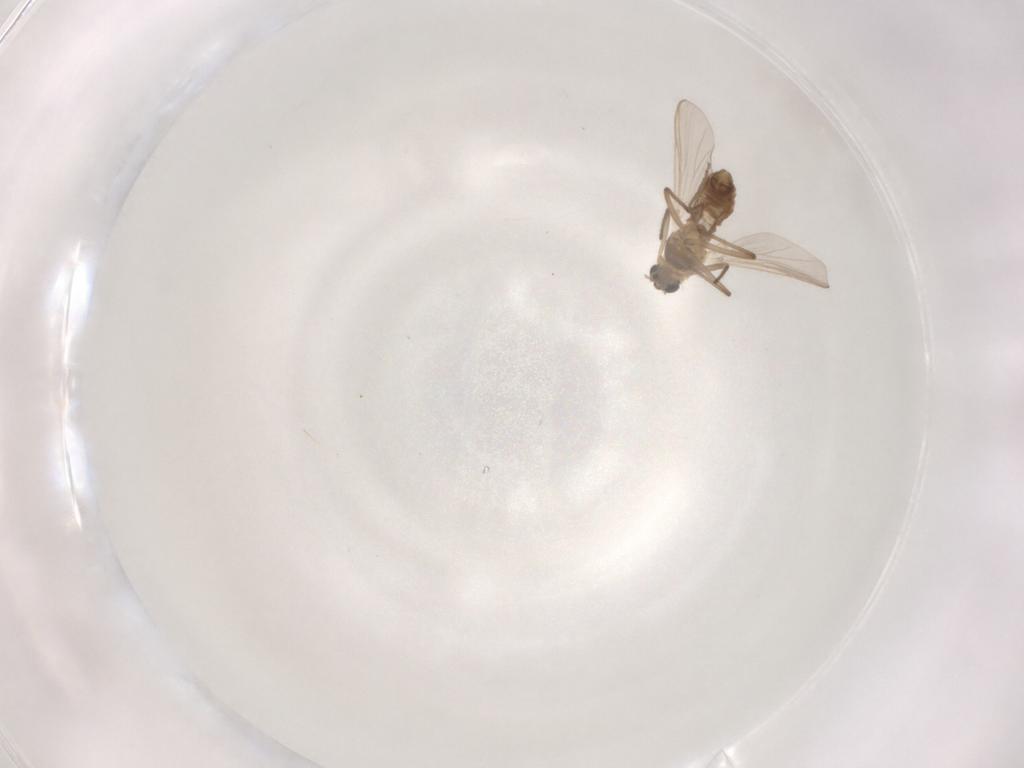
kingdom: Animalia
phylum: Arthropoda
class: Insecta
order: Diptera
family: Chironomidae
